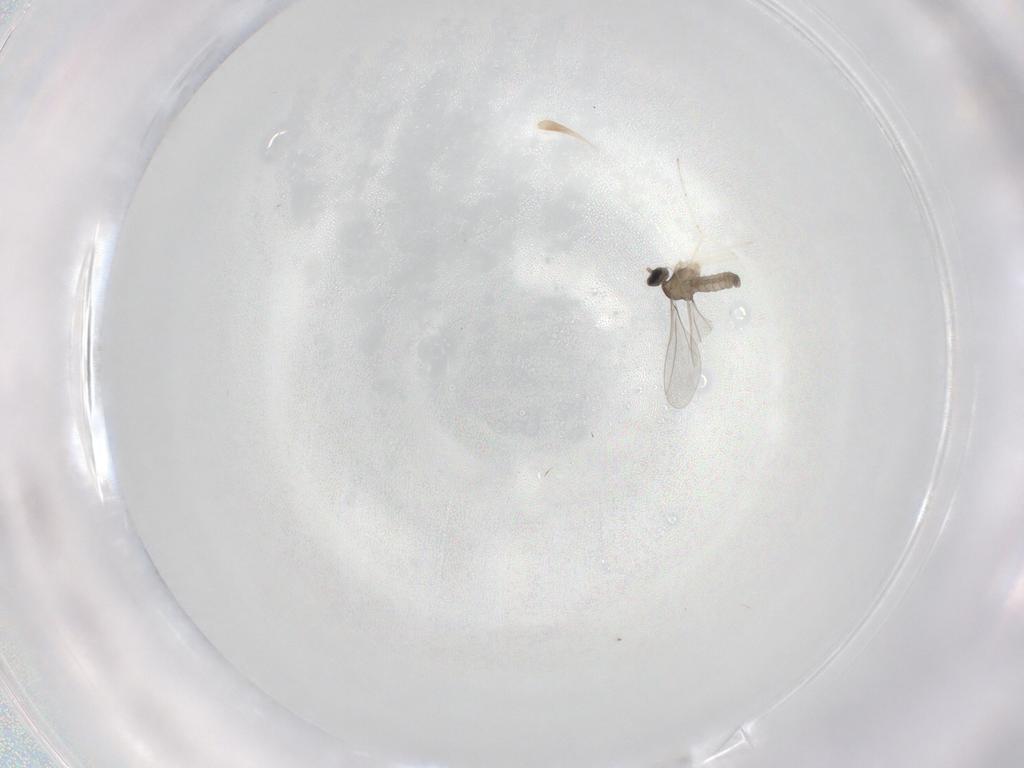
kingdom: Animalia
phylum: Arthropoda
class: Insecta
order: Diptera
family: Cecidomyiidae
